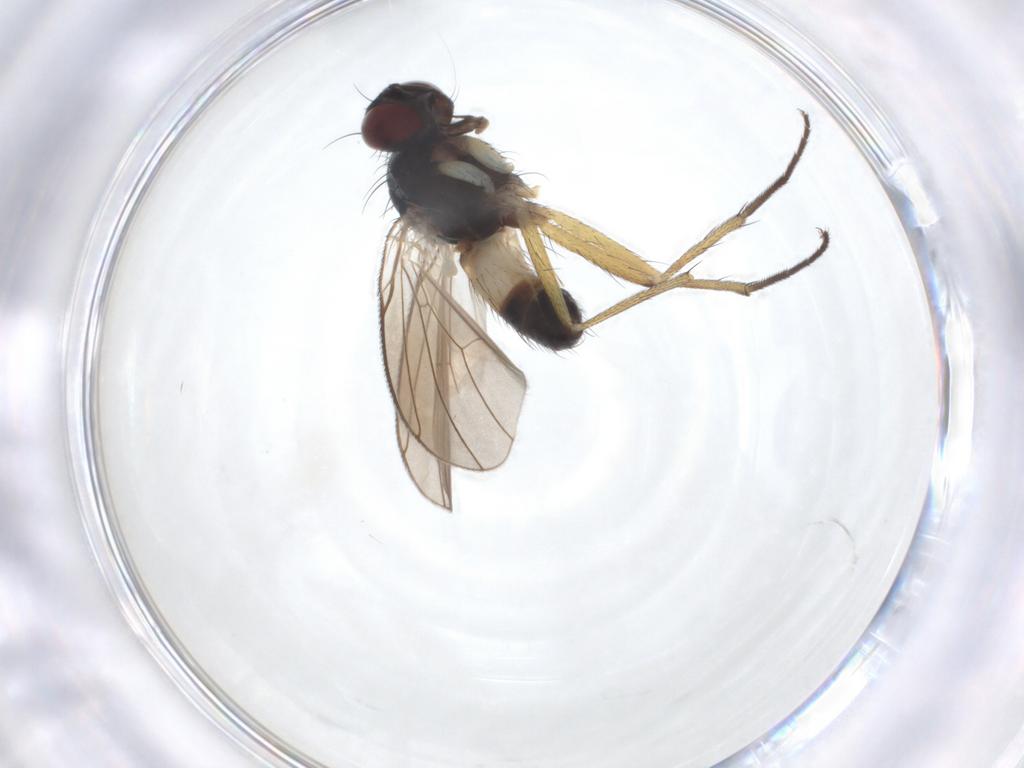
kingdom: Animalia
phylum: Arthropoda
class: Insecta
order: Diptera
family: Muscidae
